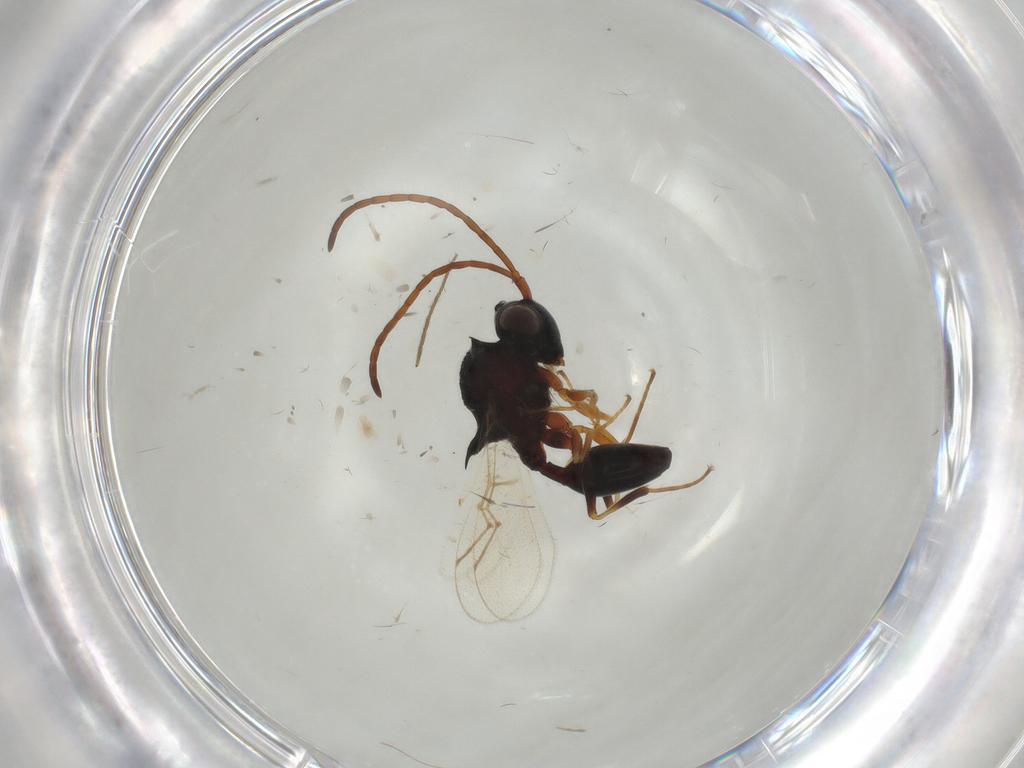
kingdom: Animalia
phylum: Arthropoda
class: Insecta
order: Hymenoptera
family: Figitidae
